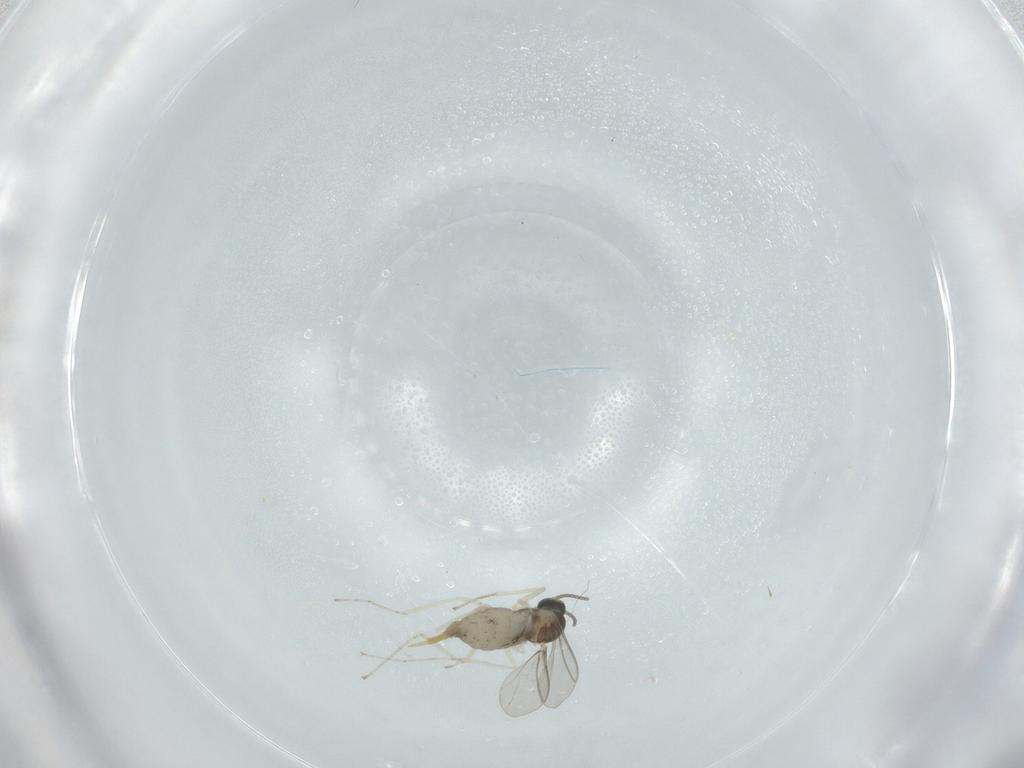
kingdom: Animalia
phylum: Arthropoda
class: Insecta
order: Diptera
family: Cecidomyiidae
